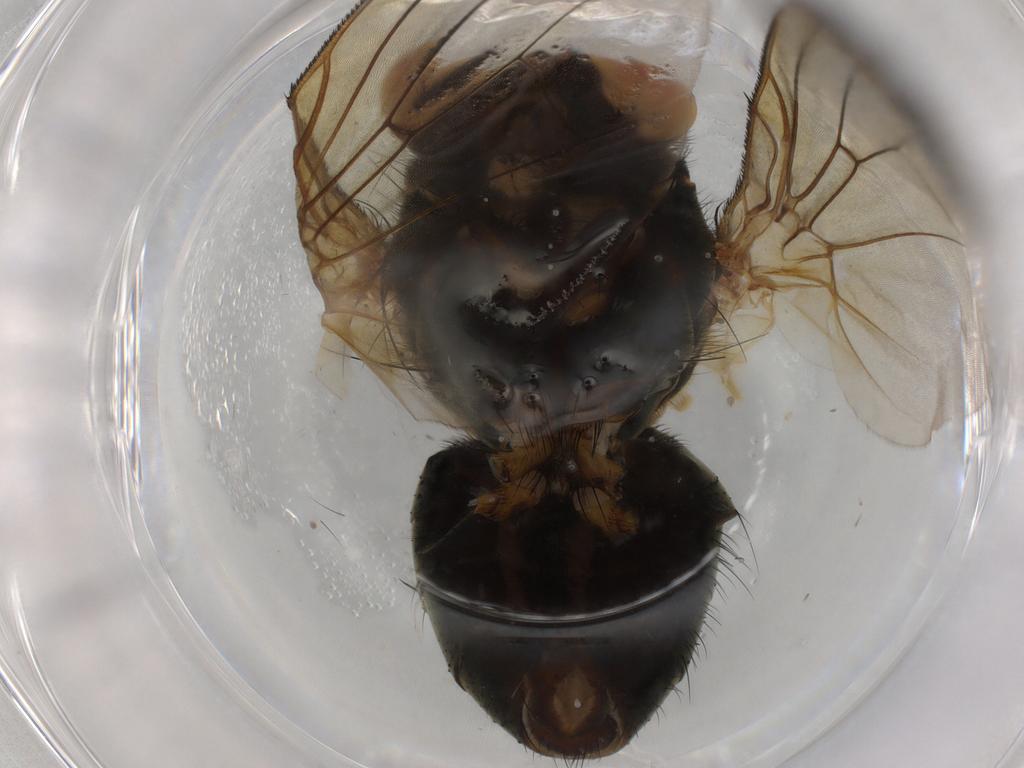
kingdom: Animalia
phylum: Arthropoda
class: Insecta
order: Diptera
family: Muscidae
